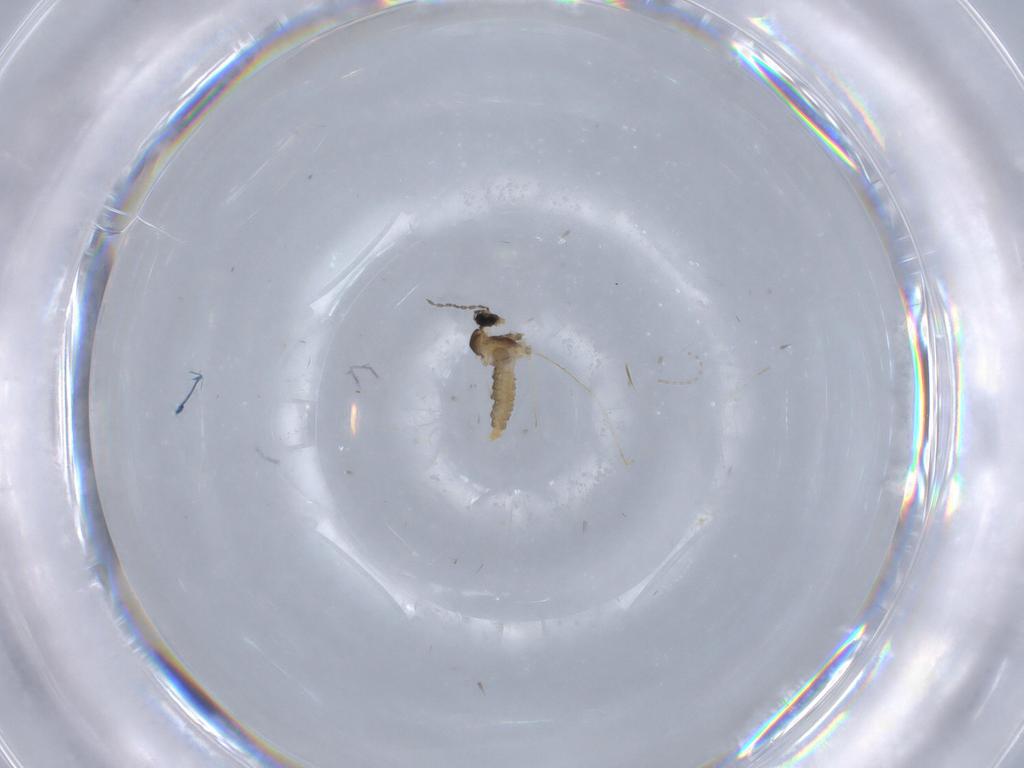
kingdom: Animalia
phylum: Arthropoda
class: Insecta
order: Diptera
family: Cecidomyiidae
